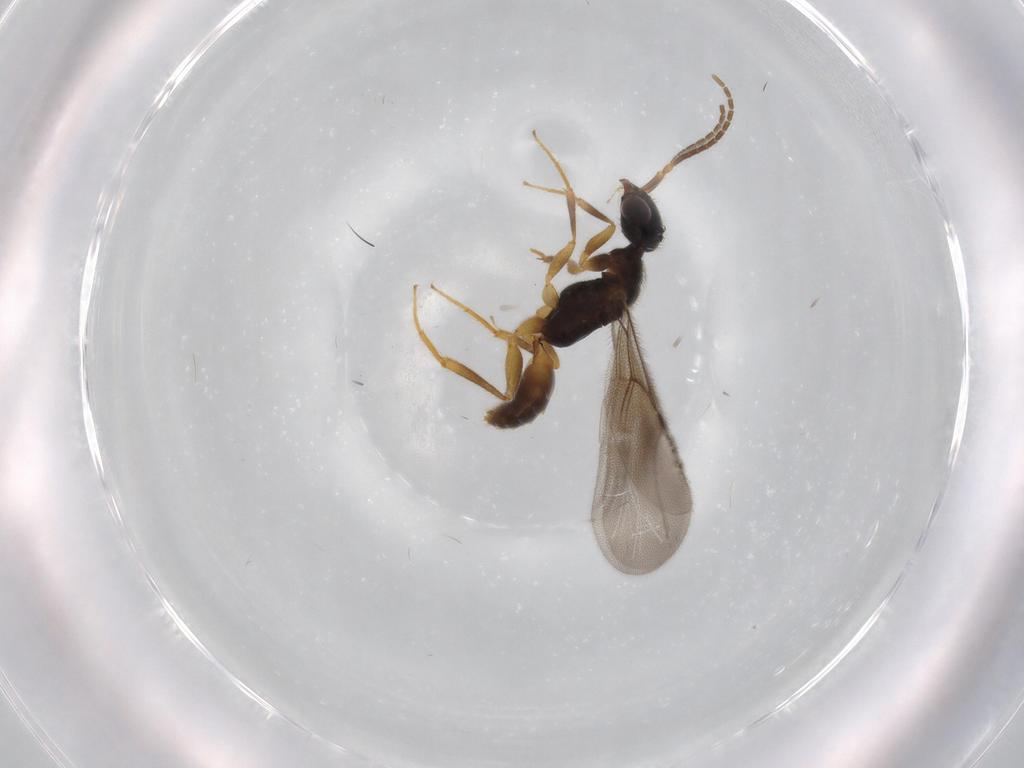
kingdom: Animalia
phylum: Arthropoda
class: Insecta
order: Hymenoptera
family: Bethylidae
